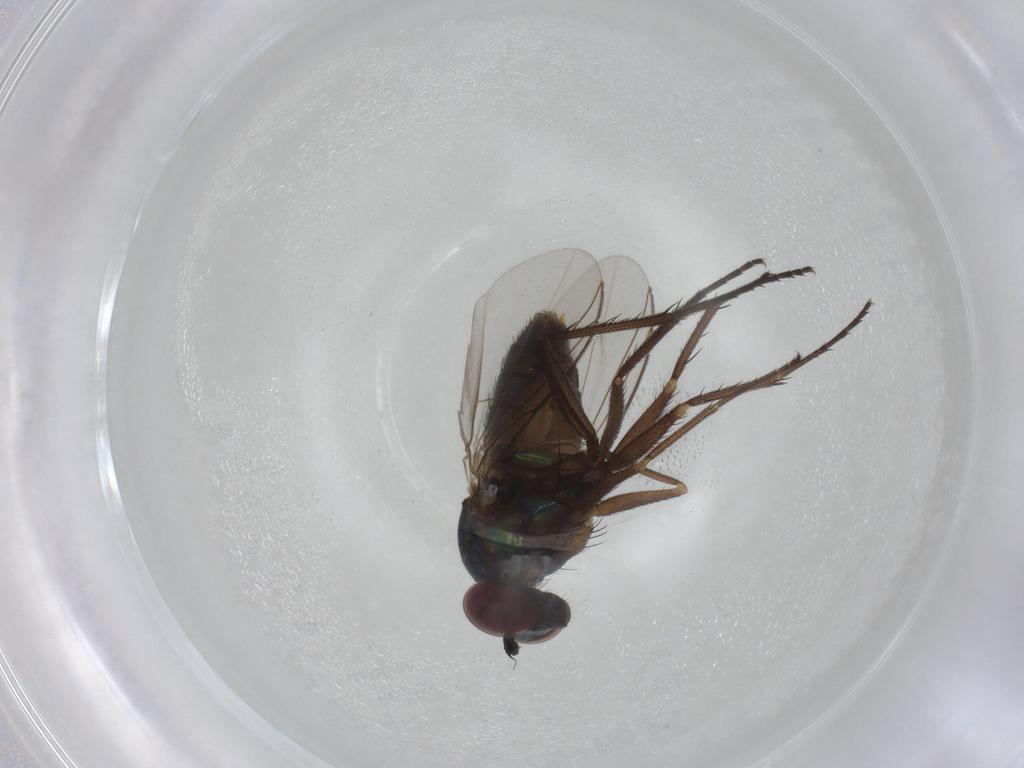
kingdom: Animalia
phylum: Arthropoda
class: Insecta
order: Diptera
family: Dolichopodidae
